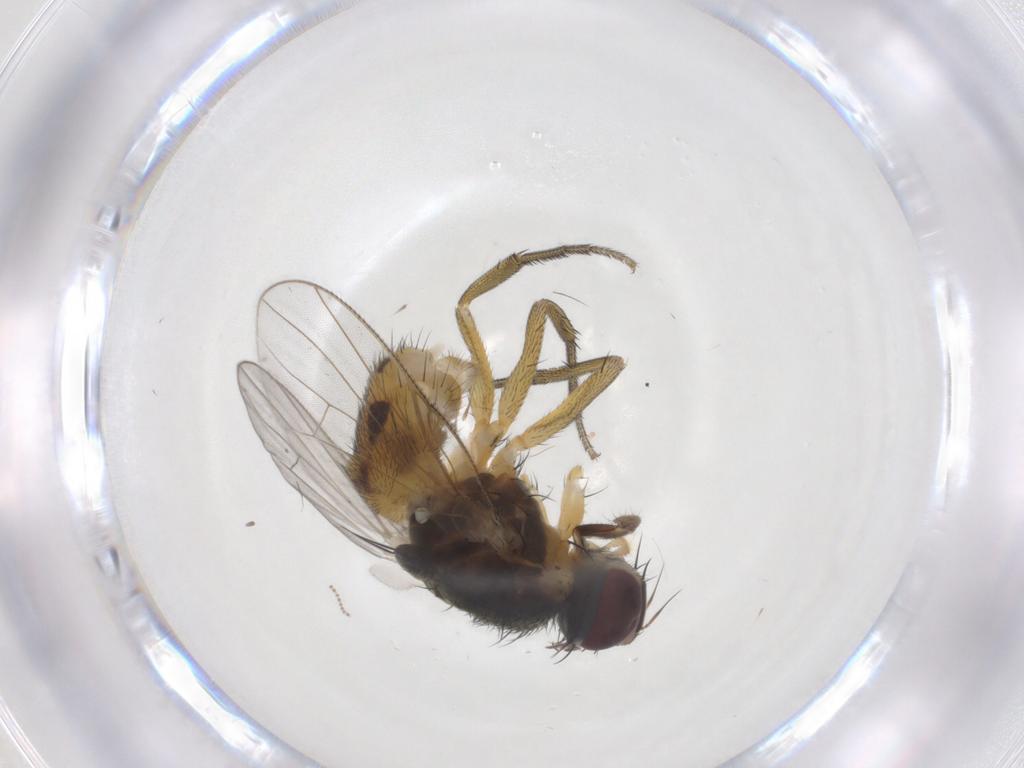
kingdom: Animalia
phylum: Arthropoda
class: Insecta
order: Diptera
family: Muscidae
